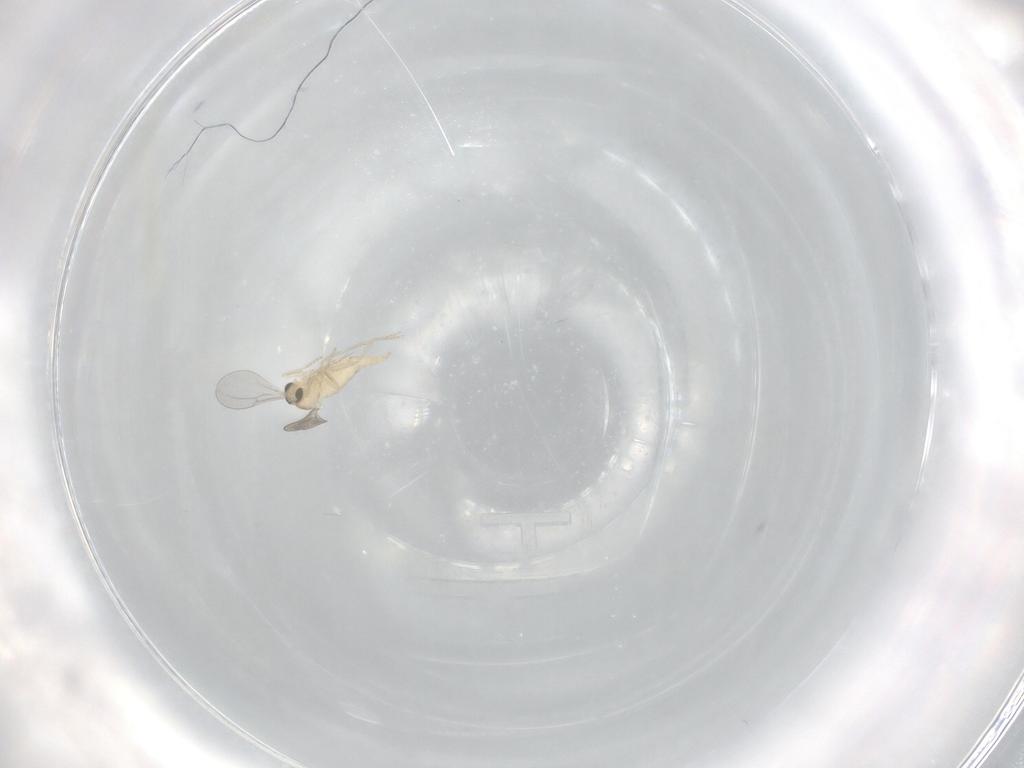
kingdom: Animalia
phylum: Arthropoda
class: Insecta
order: Diptera
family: Cecidomyiidae
